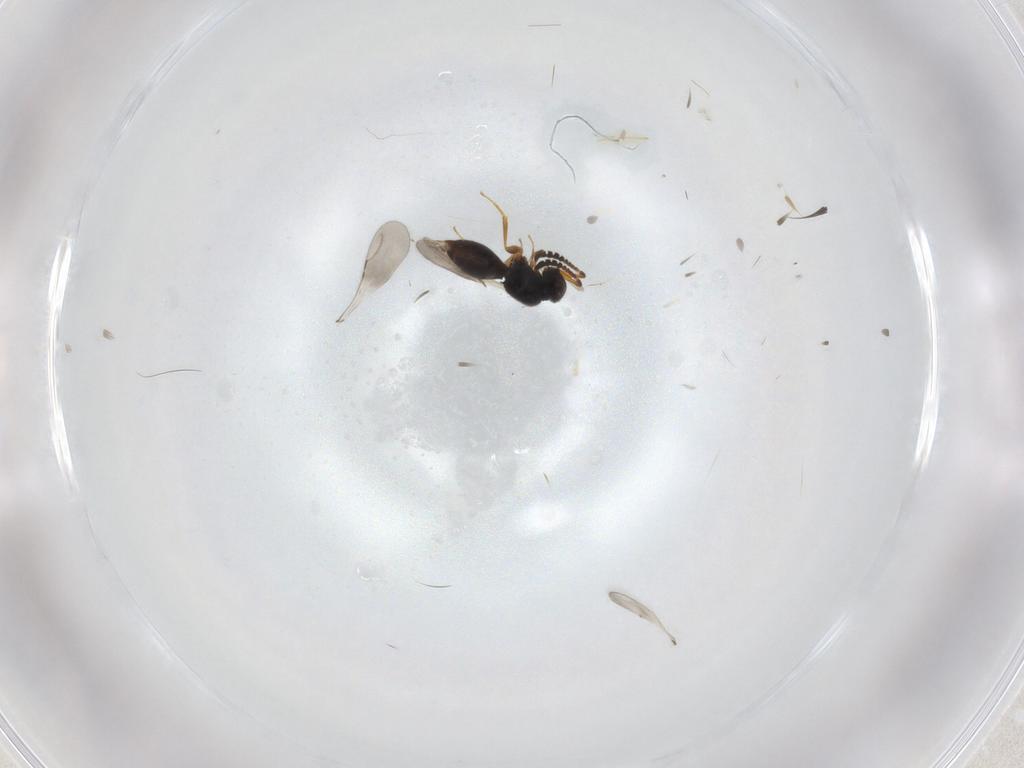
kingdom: Animalia
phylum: Arthropoda
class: Insecta
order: Hymenoptera
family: Braconidae
